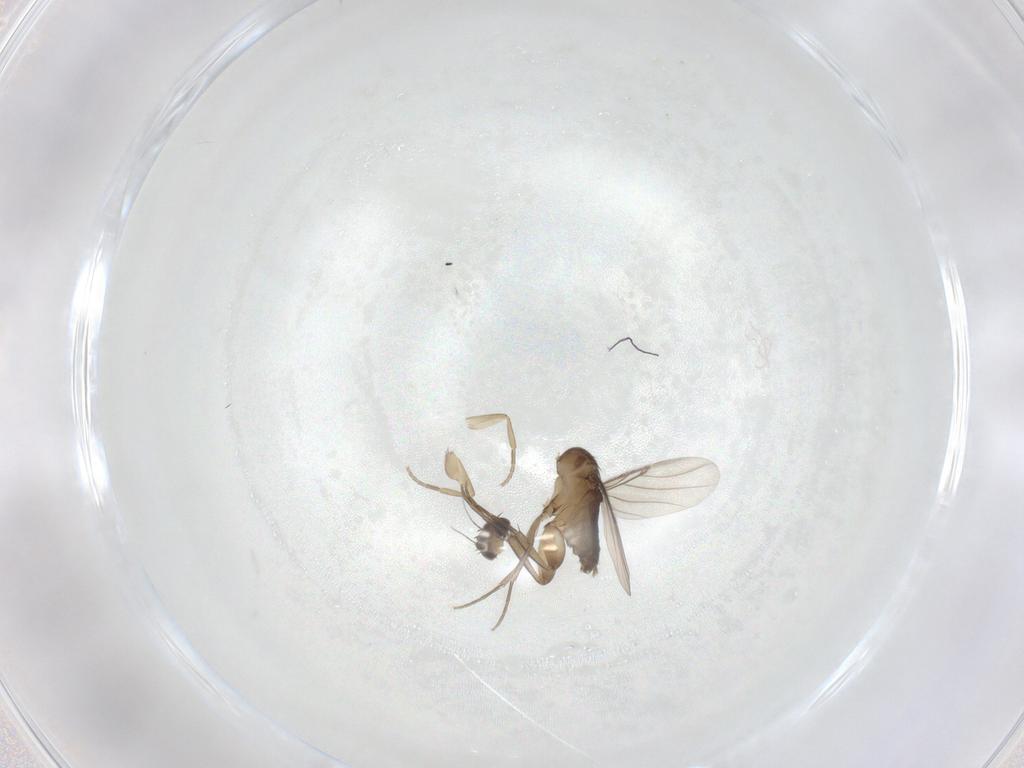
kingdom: Animalia
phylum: Arthropoda
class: Insecta
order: Diptera
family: Phoridae
